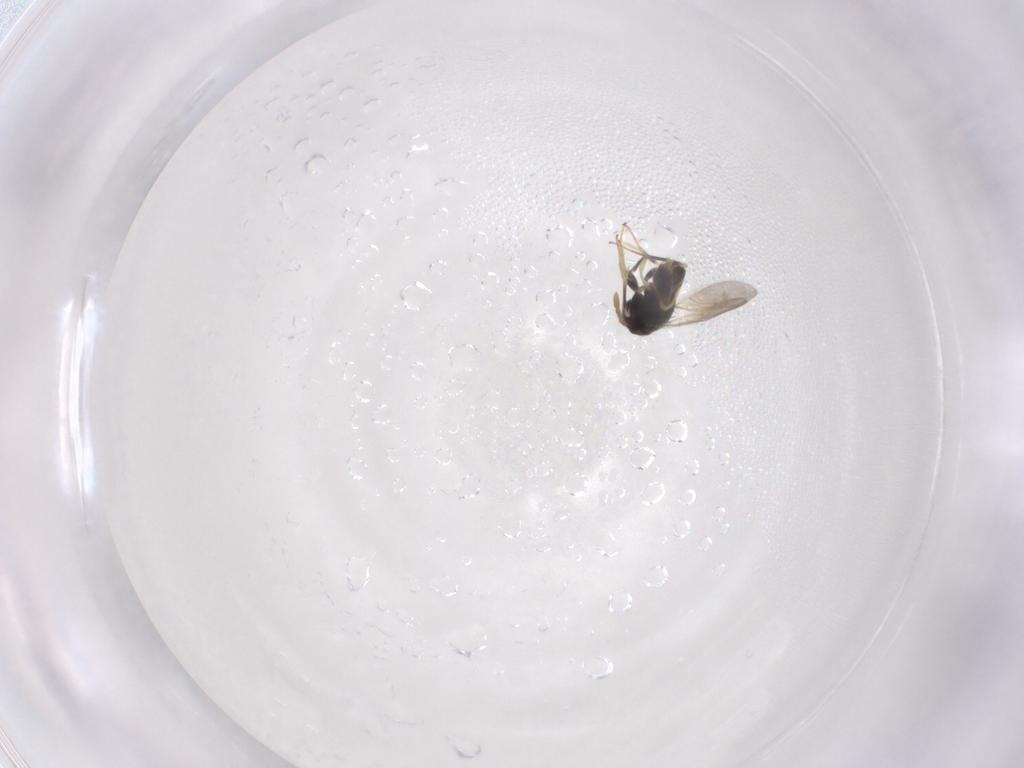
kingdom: Animalia
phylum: Arthropoda
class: Insecta
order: Hymenoptera
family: Aphelinidae
